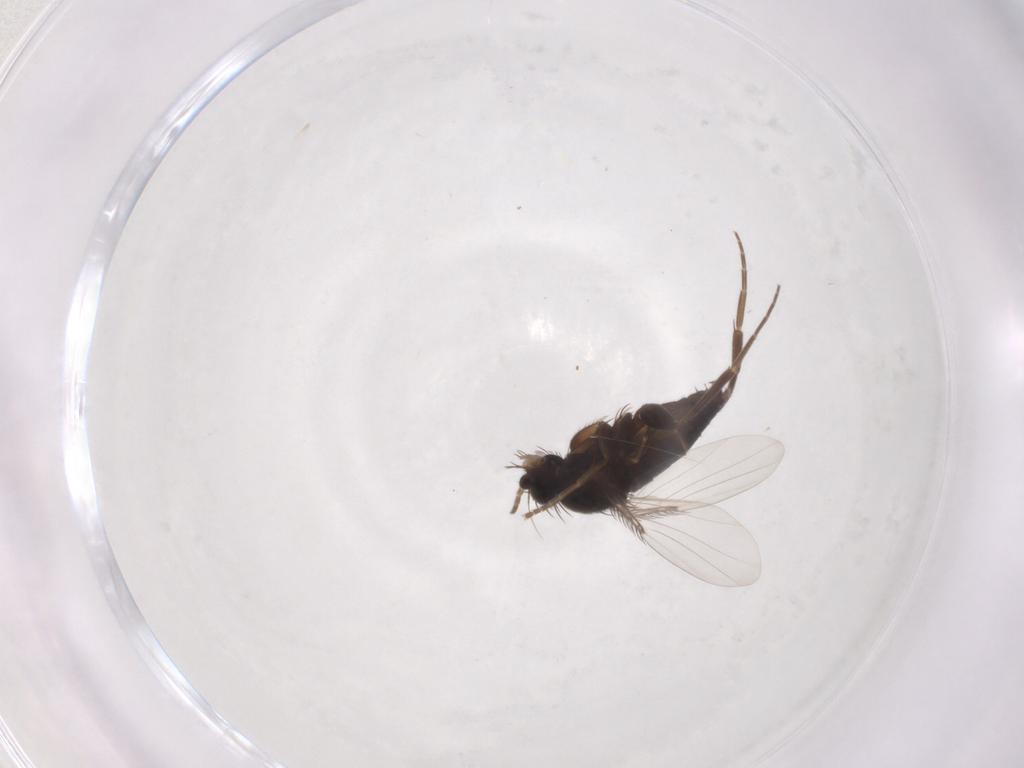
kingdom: Animalia
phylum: Arthropoda
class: Insecta
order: Diptera
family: Phoridae
